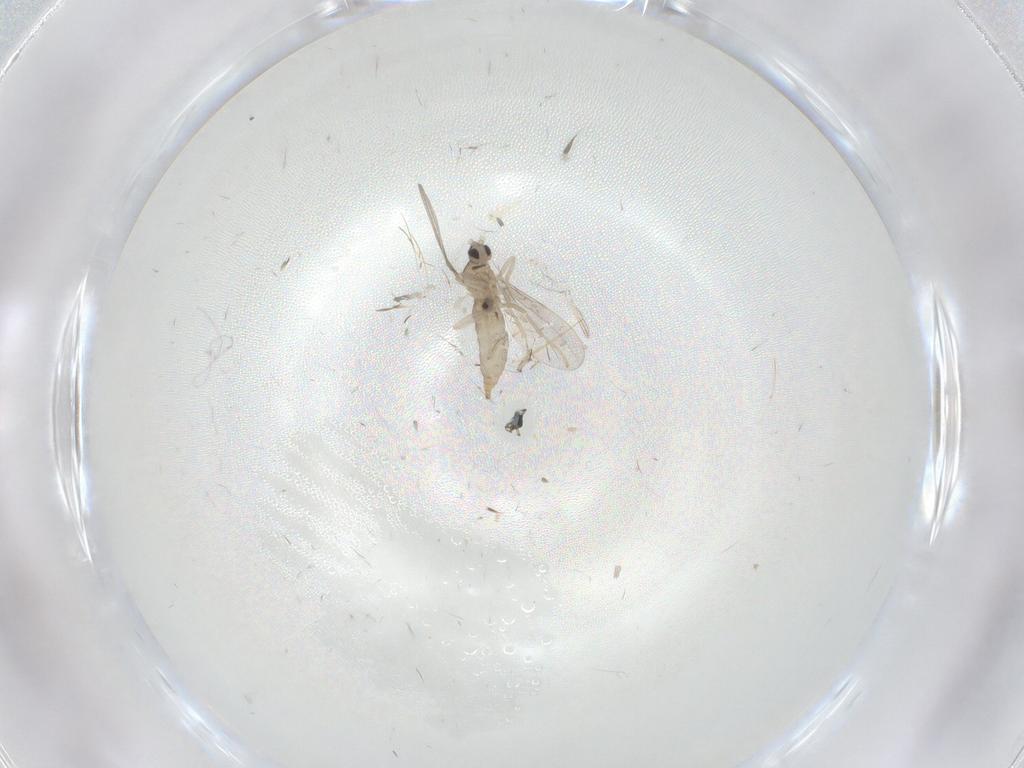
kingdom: Animalia
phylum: Arthropoda
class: Insecta
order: Diptera
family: Cecidomyiidae
